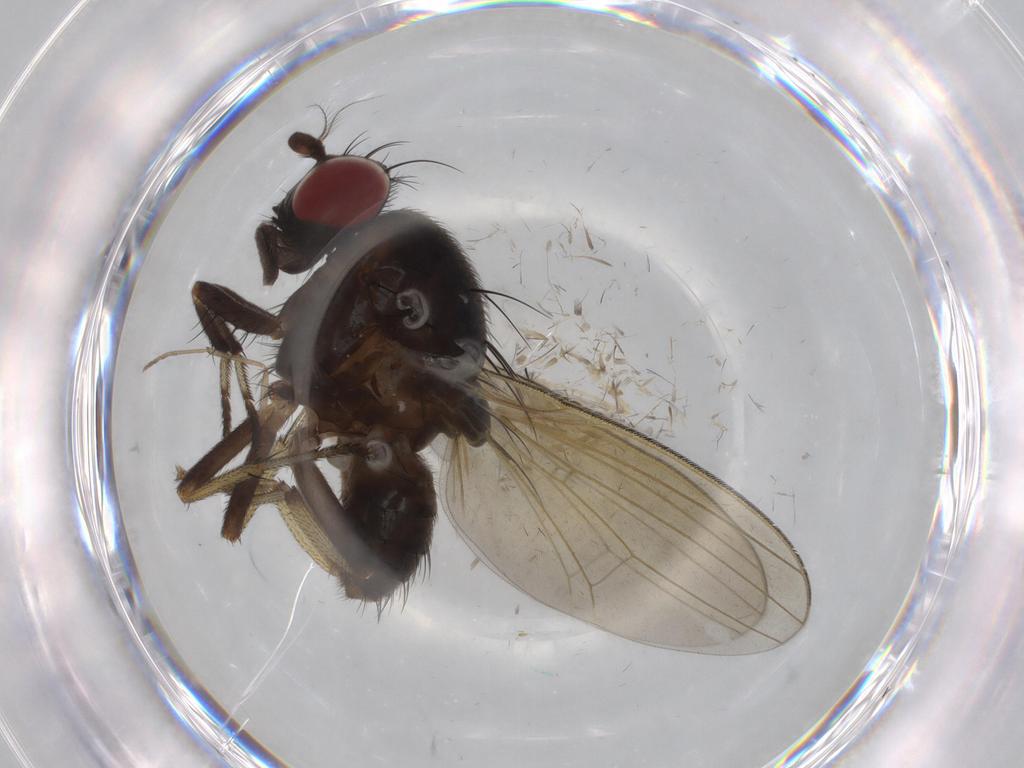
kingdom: Animalia
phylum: Arthropoda
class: Insecta
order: Diptera
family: Chironomidae
